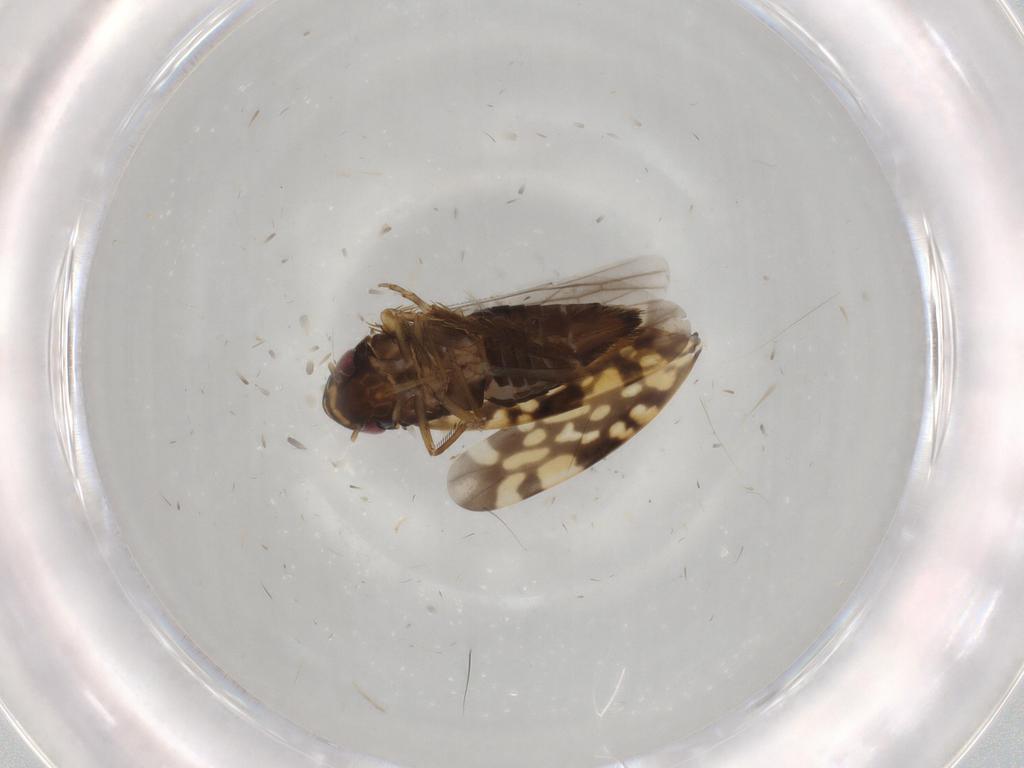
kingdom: Animalia
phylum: Arthropoda
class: Insecta
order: Hemiptera
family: Cicadellidae
